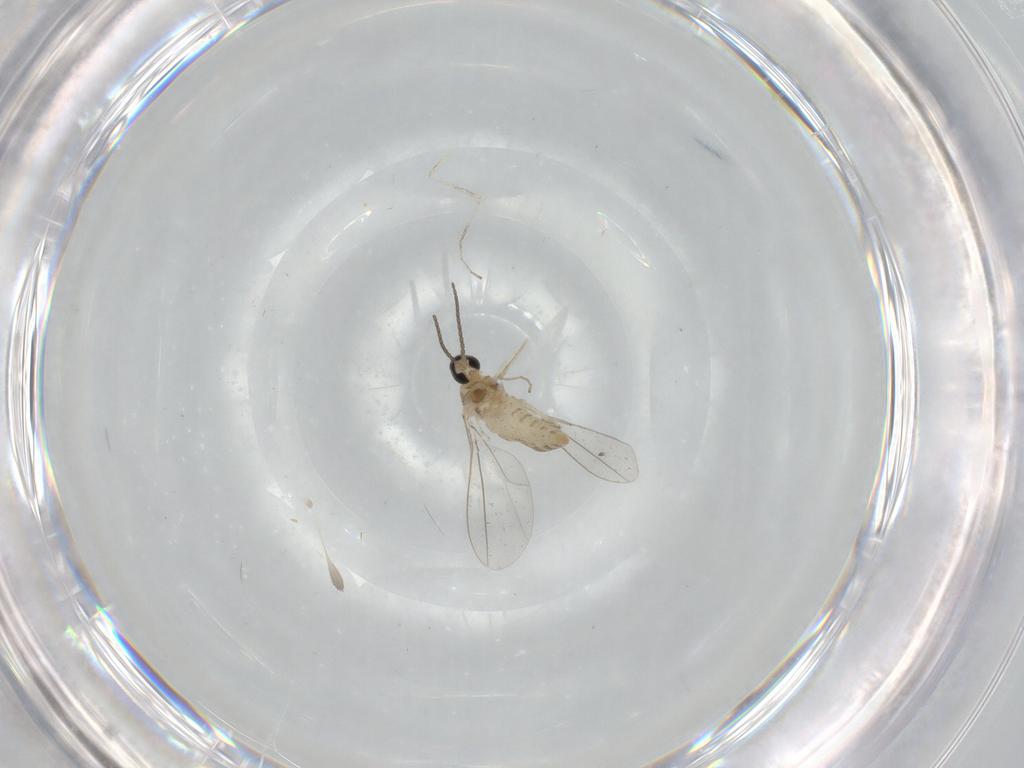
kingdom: Animalia
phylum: Arthropoda
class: Insecta
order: Diptera
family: Cecidomyiidae
